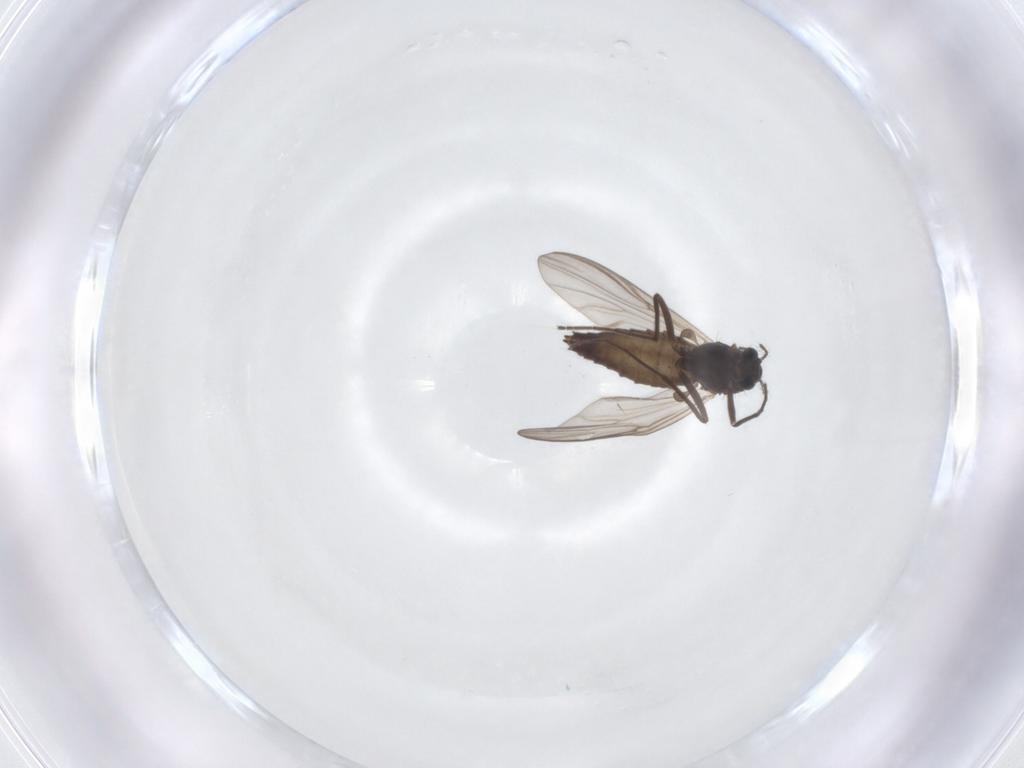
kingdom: Animalia
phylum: Arthropoda
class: Insecta
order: Diptera
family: Chironomidae
